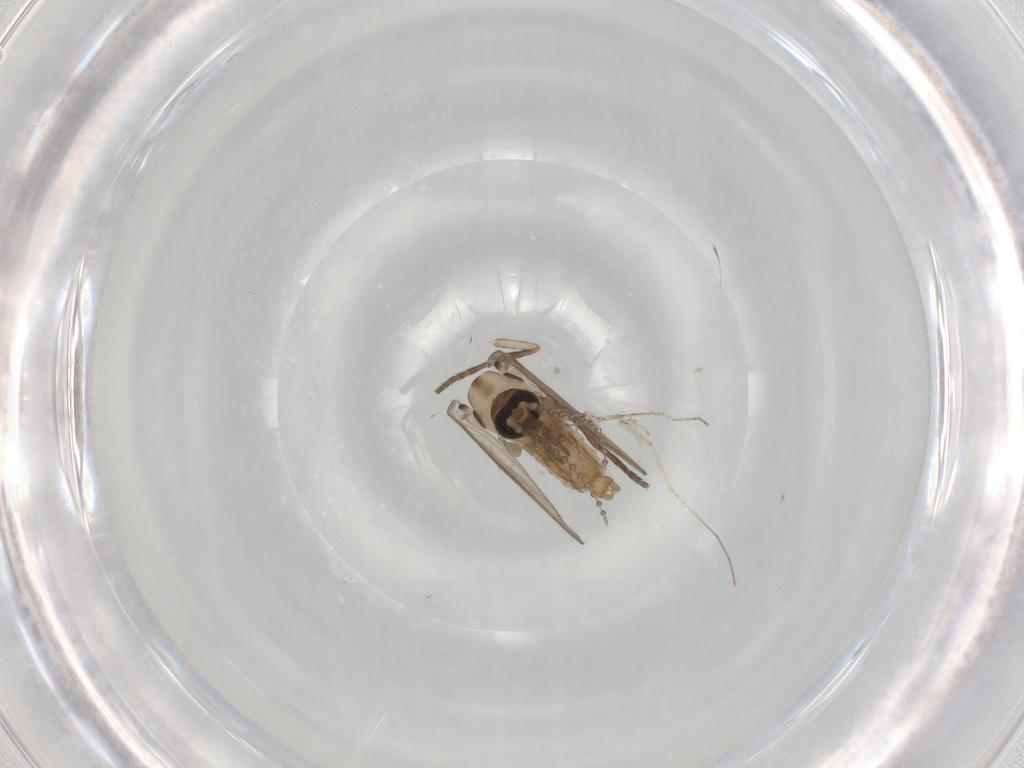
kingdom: Animalia
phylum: Arthropoda
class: Insecta
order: Diptera
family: Psychodidae
